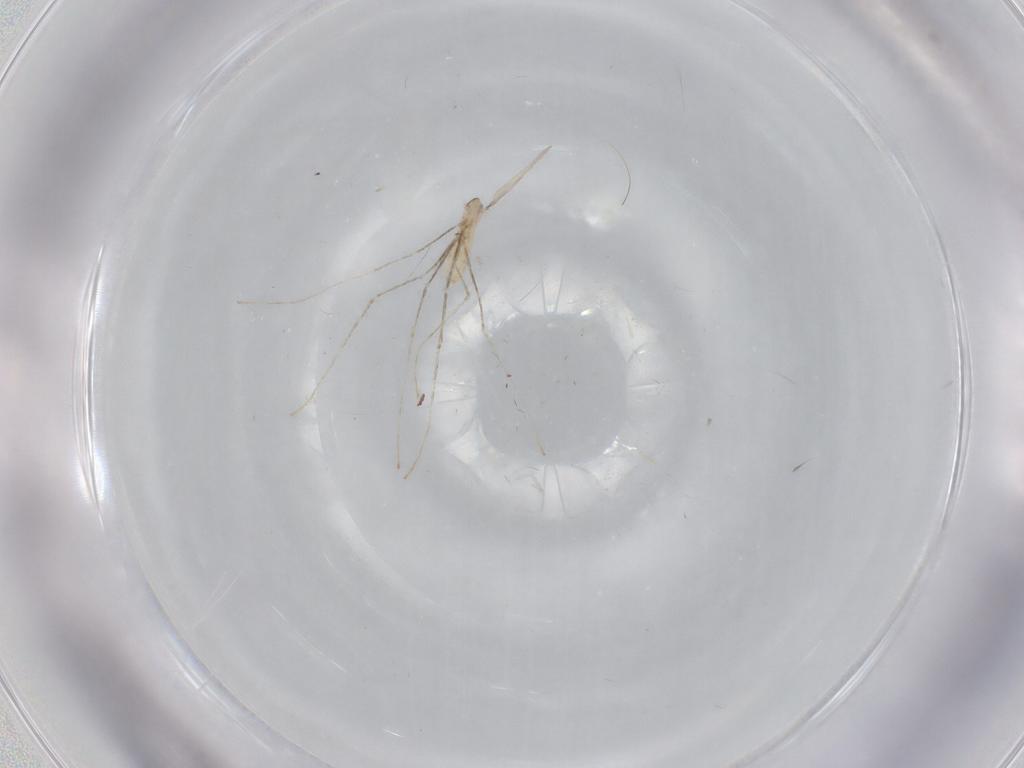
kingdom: Animalia
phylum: Arthropoda
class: Insecta
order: Diptera
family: Cecidomyiidae
